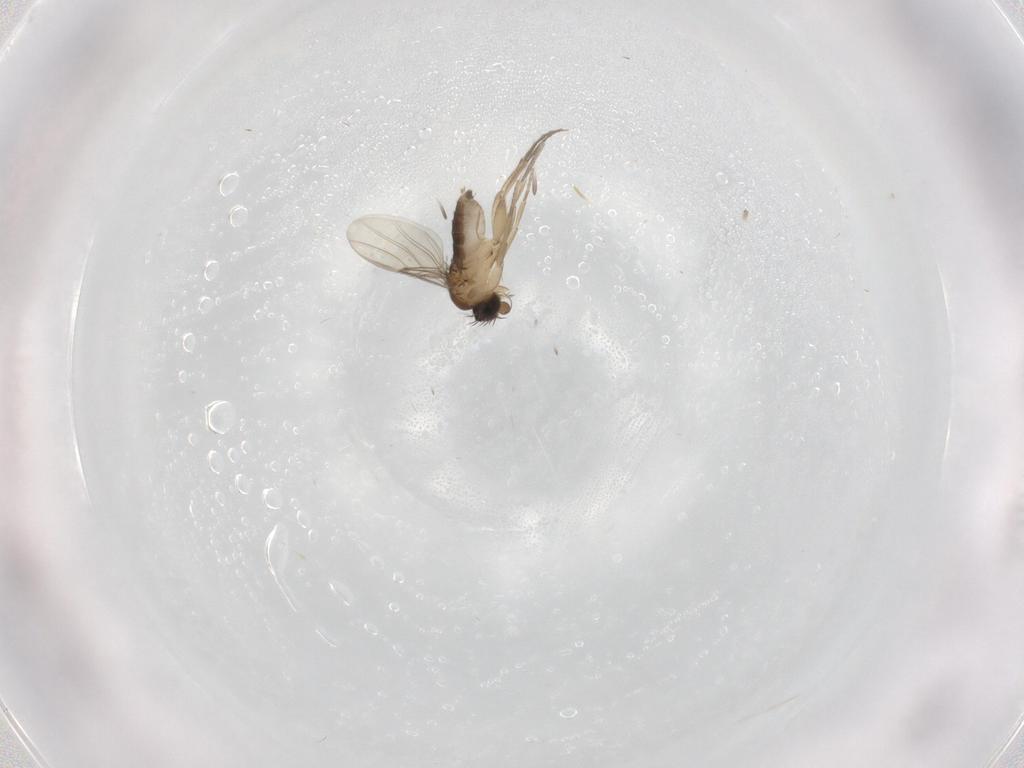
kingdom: Animalia
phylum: Arthropoda
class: Insecta
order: Diptera
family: Phoridae
